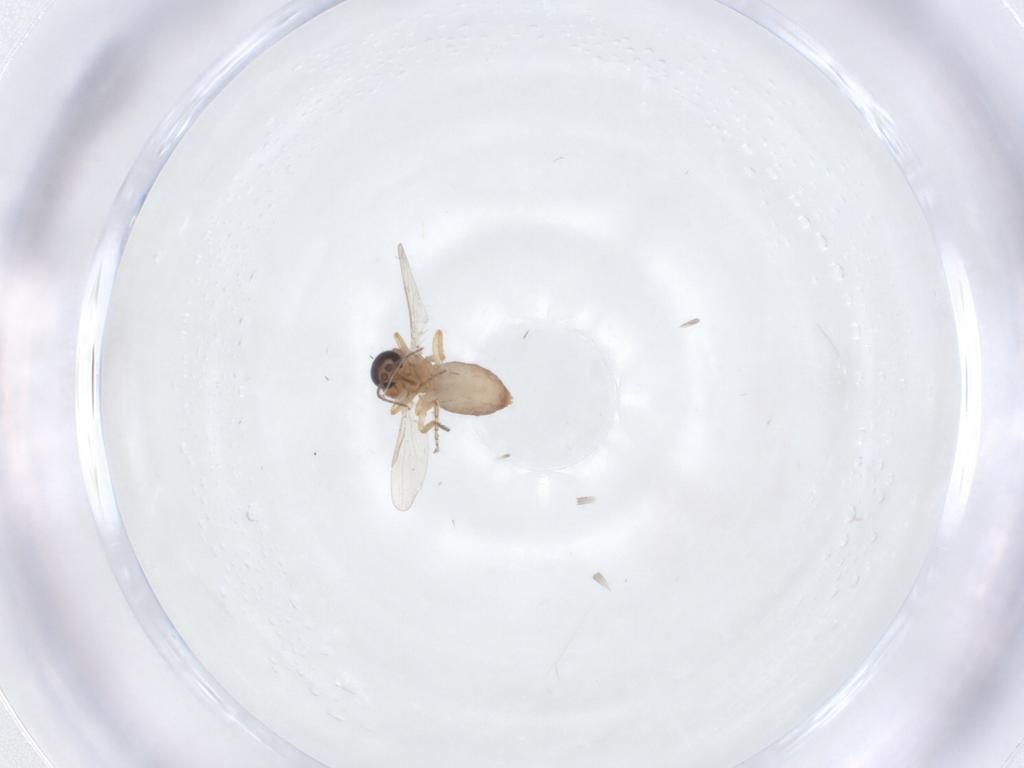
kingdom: Animalia
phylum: Arthropoda
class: Insecta
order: Diptera
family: Ceratopogonidae
